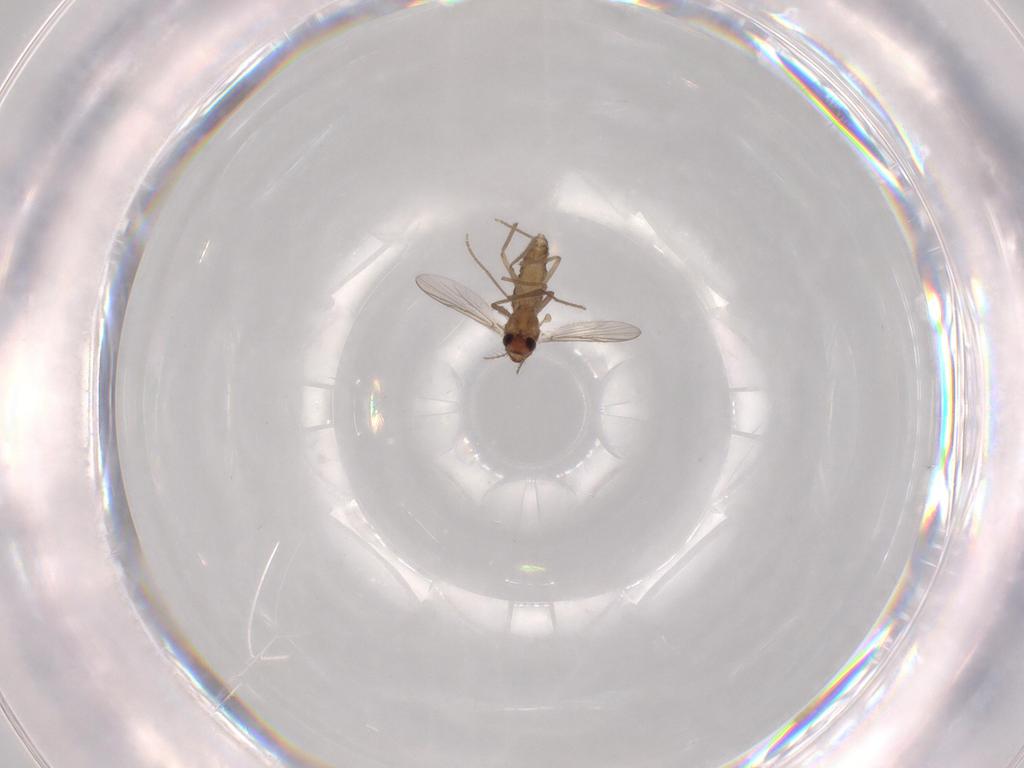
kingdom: Animalia
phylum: Arthropoda
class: Insecta
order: Diptera
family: Chironomidae
